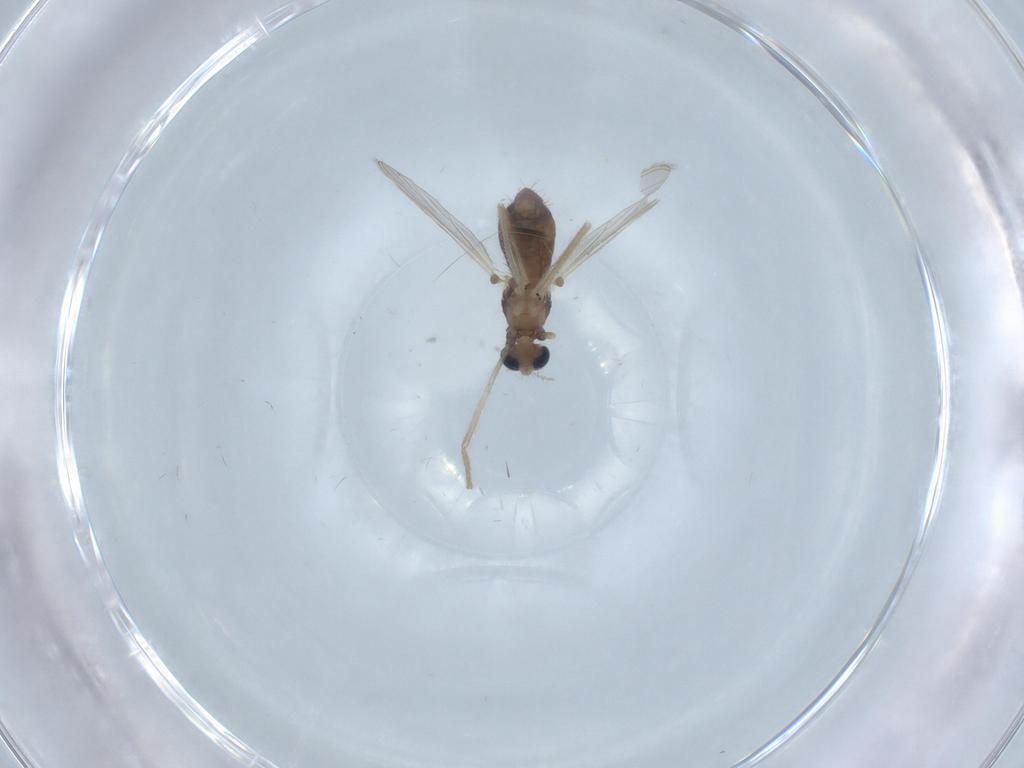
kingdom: Animalia
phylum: Arthropoda
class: Insecta
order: Diptera
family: Chironomidae
